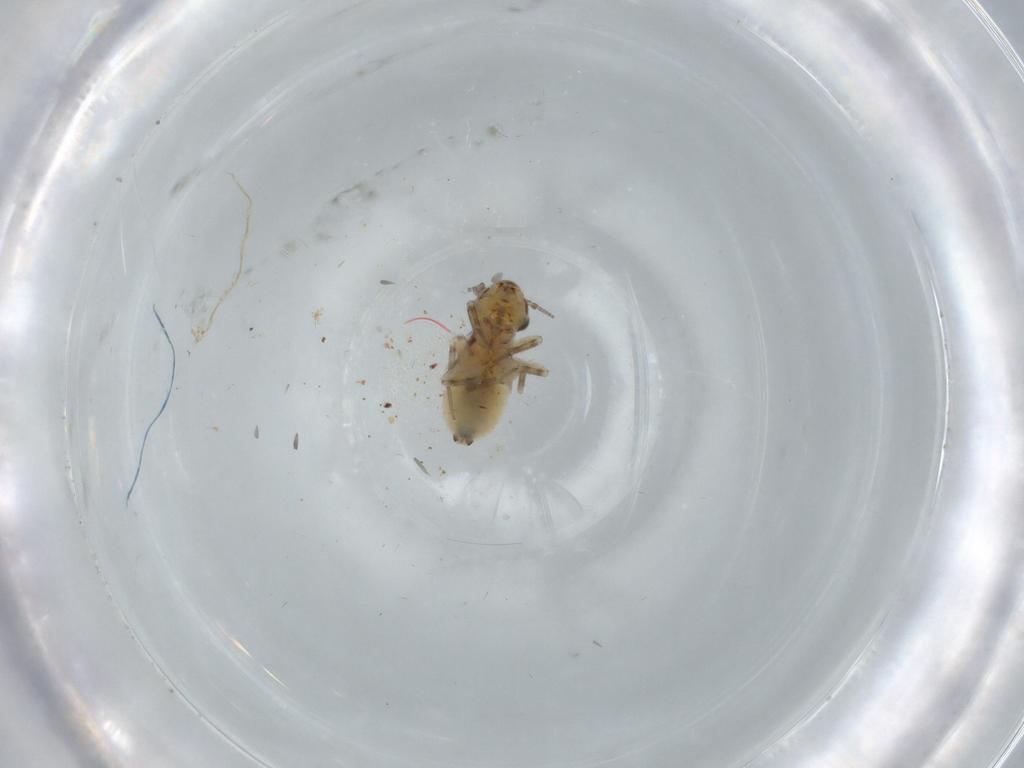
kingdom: Animalia
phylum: Arthropoda
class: Insecta
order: Psocodea
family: Lepidopsocidae
